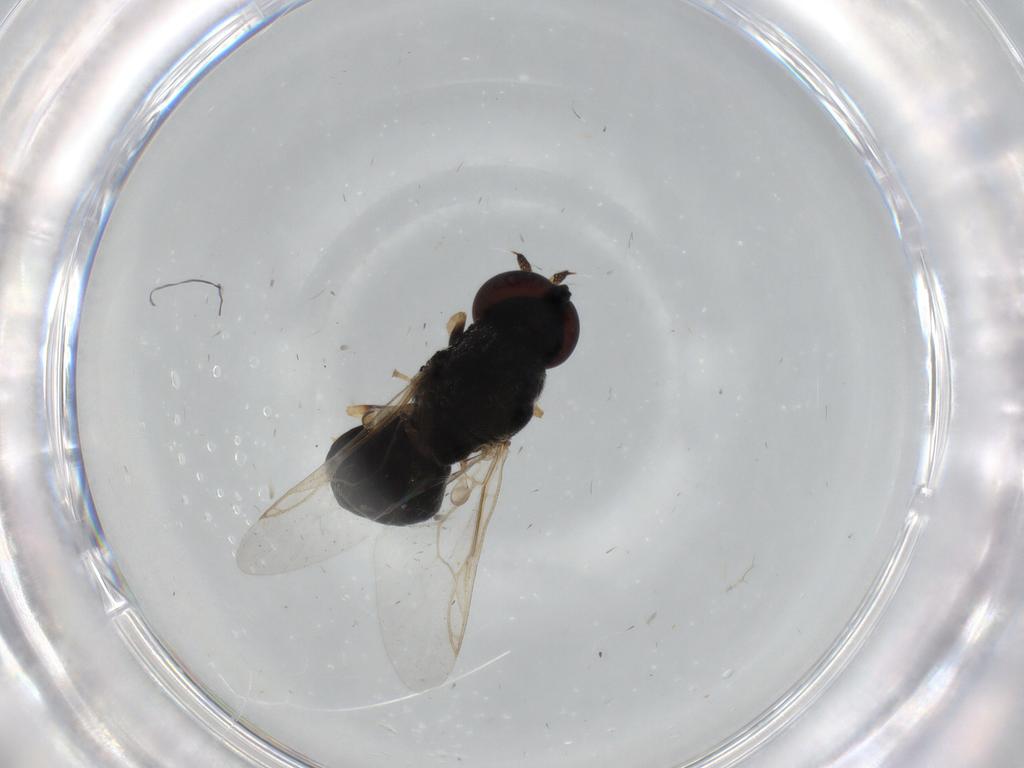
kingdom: Animalia
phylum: Arthropoda
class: Insecta
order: Diptera
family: Stratiomyidae
